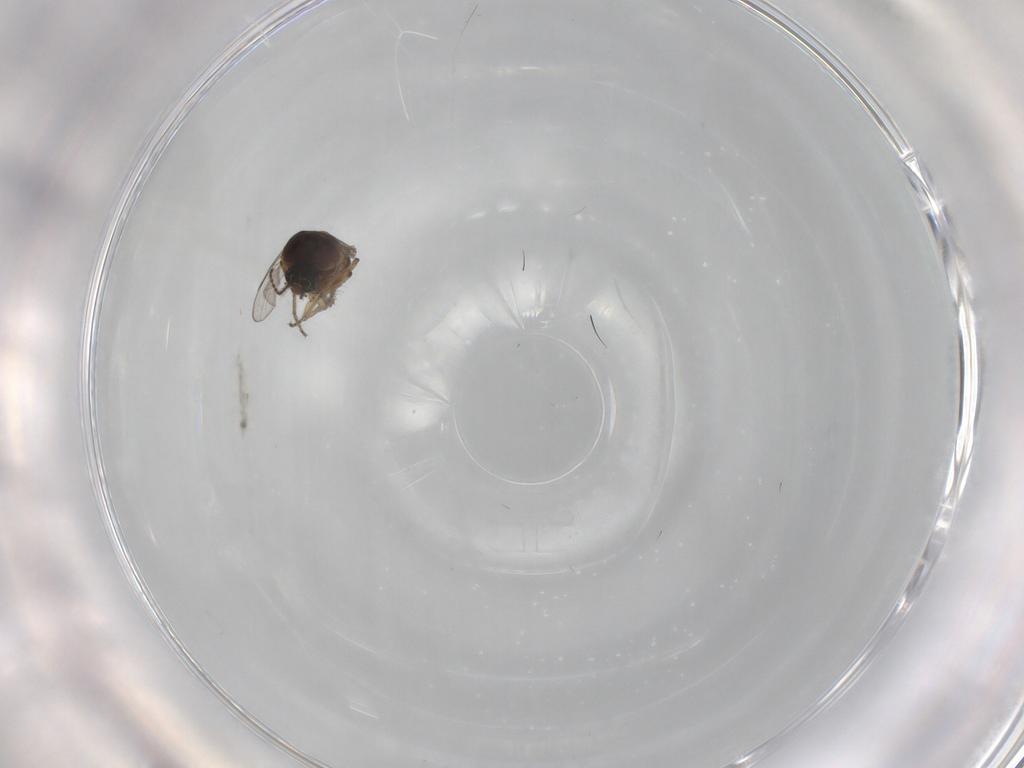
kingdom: Animalia
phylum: Arthropoda
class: Insecta
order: Diptera
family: Ceratopogonidae
